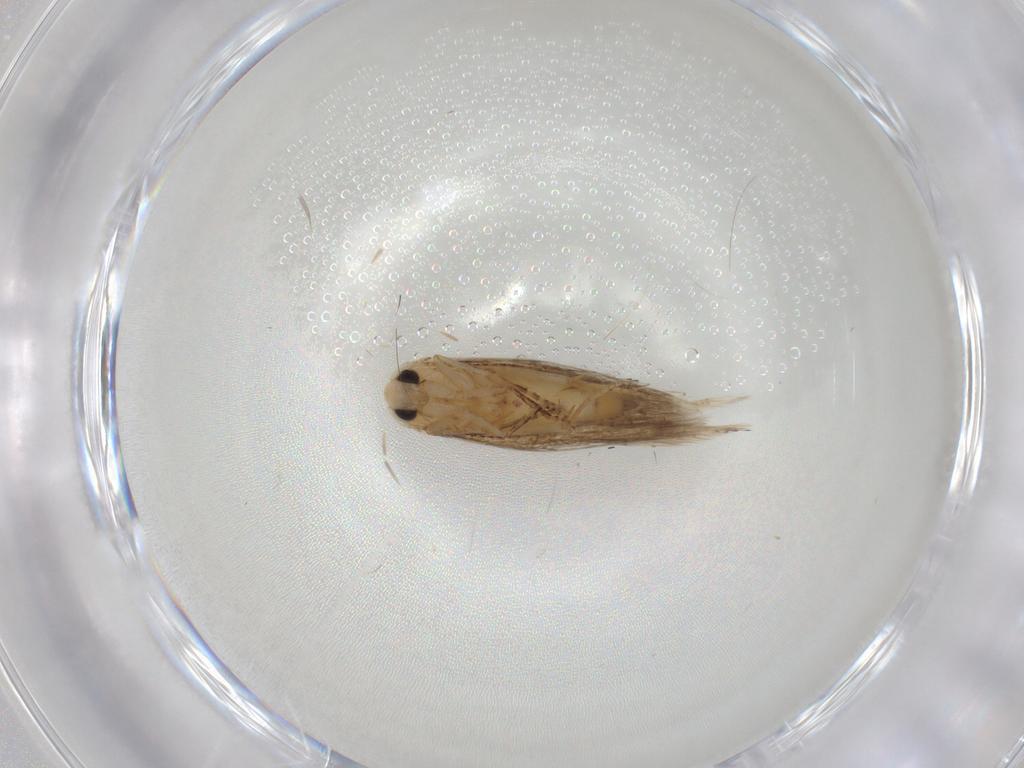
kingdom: Animalia
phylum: Arthropoda
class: Insecta
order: Lepidoptera
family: Bucculatricidae
